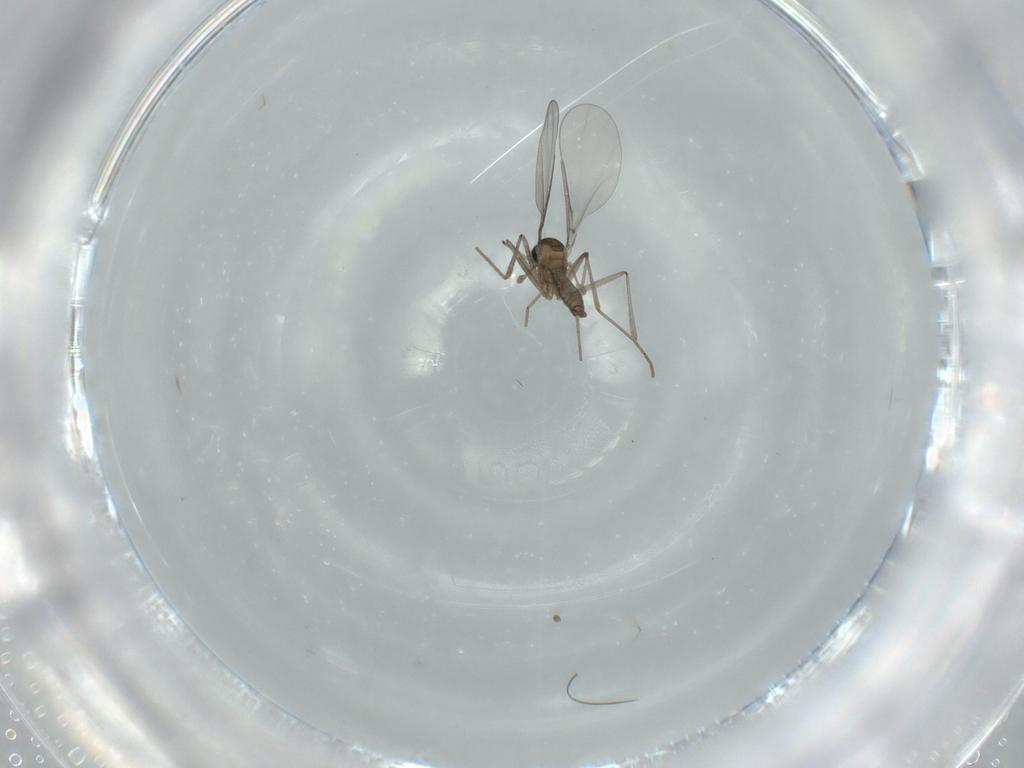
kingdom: Animalia
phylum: Arthropoda
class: Insecta
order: Diptera
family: Cecidomyiidae
